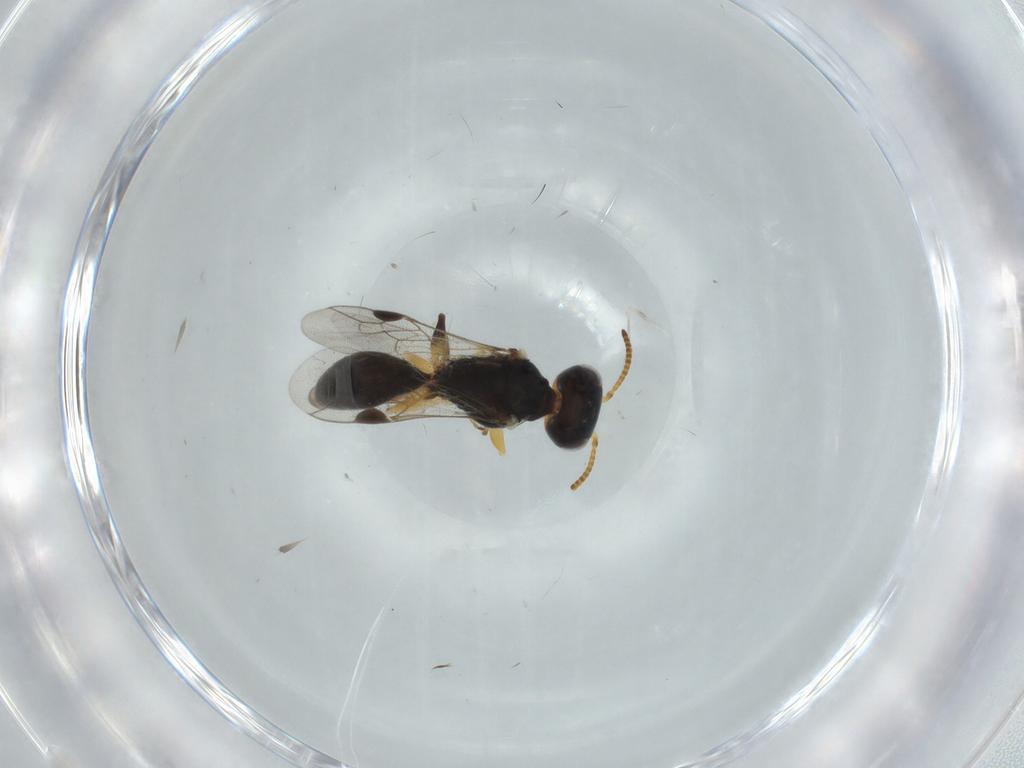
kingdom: Animalia
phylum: Arthropoda
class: Insecta
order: Hymenoptera
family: Pemphredonidae
